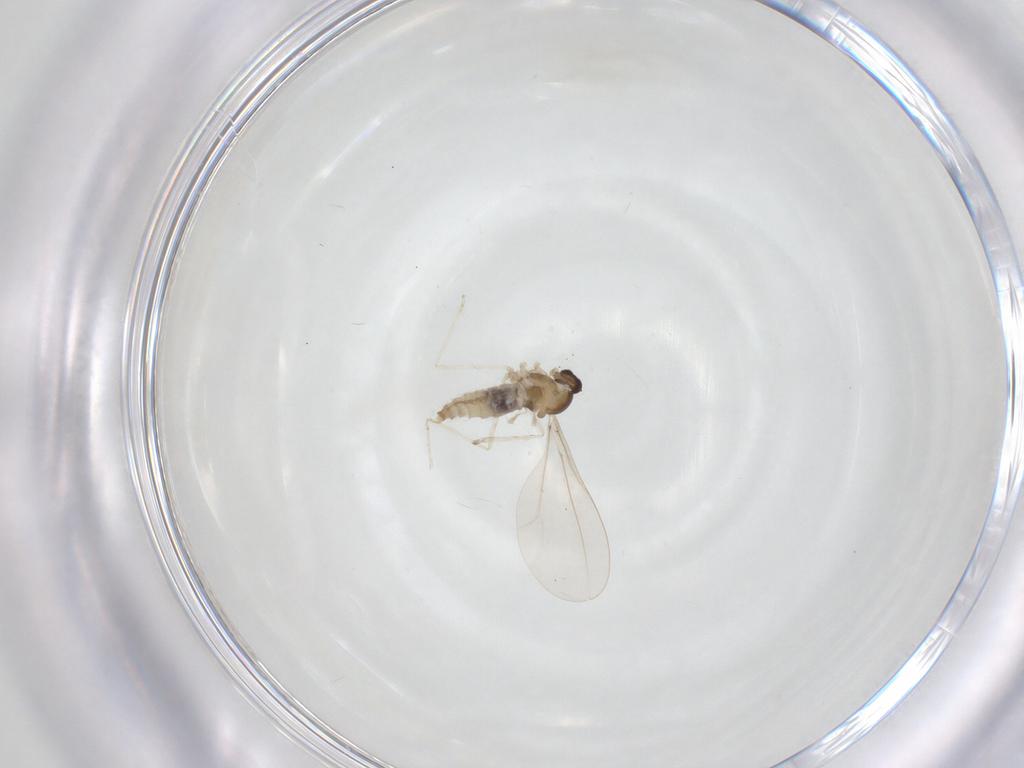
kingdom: Animalia
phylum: Arthropoda
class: Insecta
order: Diptera
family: Cecidomyiidae
